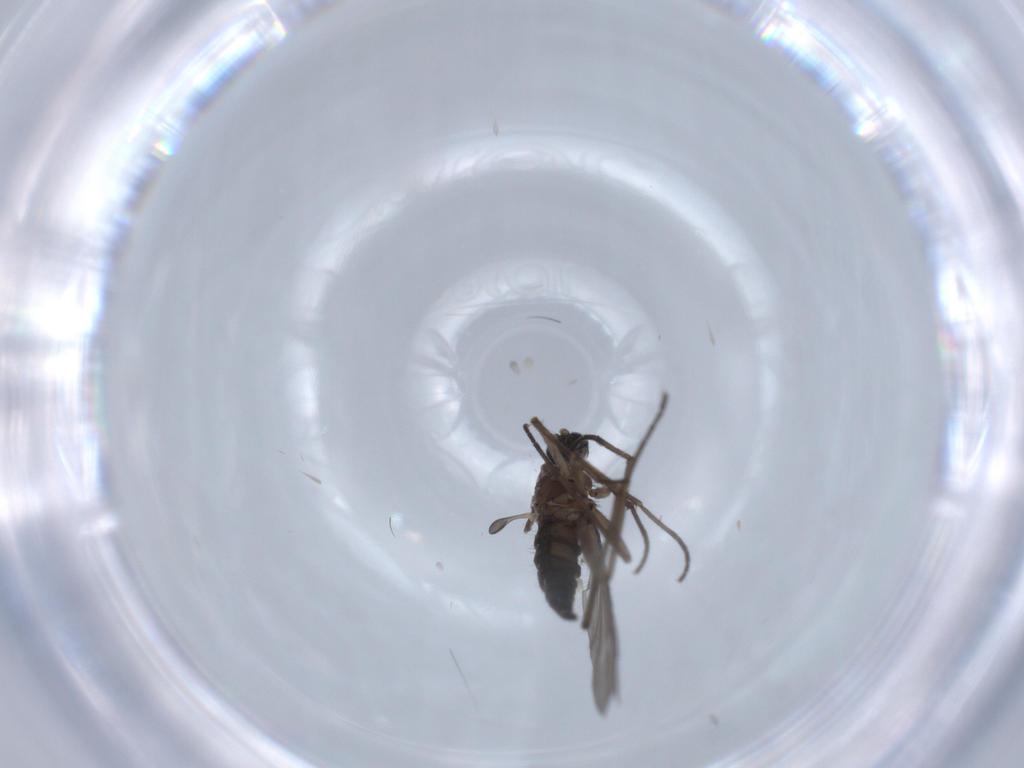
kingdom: Animalia
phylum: Arthropoda
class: Insecta
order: Diptera
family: Sciaridae
